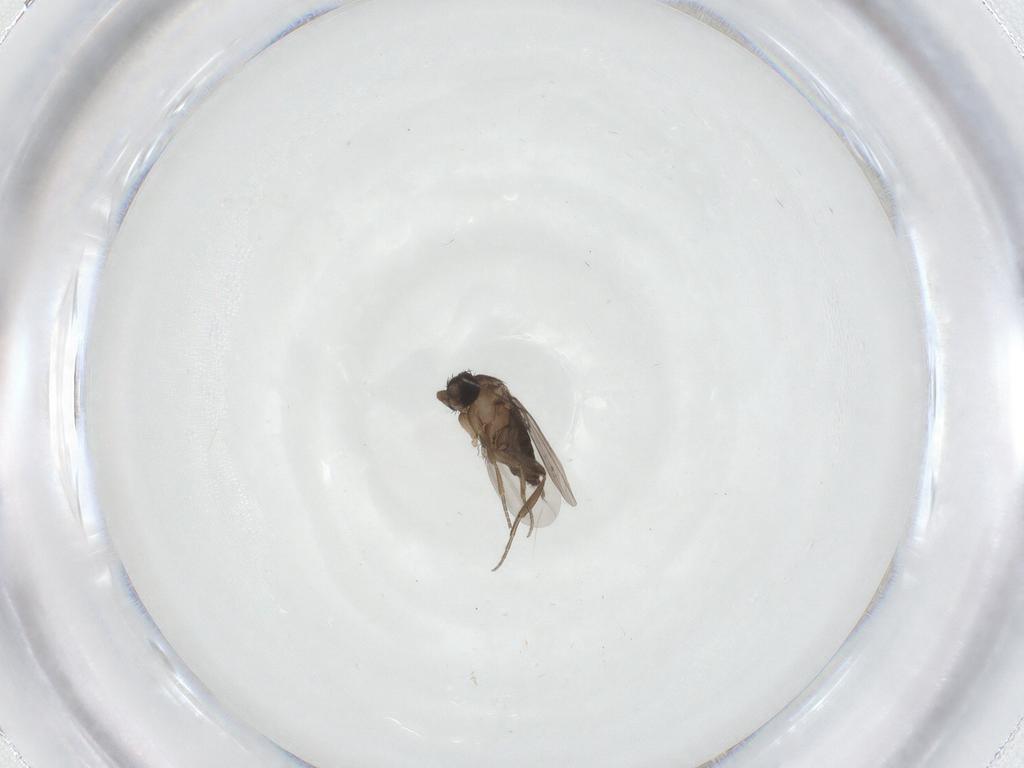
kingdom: Animalia
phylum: Arthropoda
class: Insecta
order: Diptera
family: Phoridae
